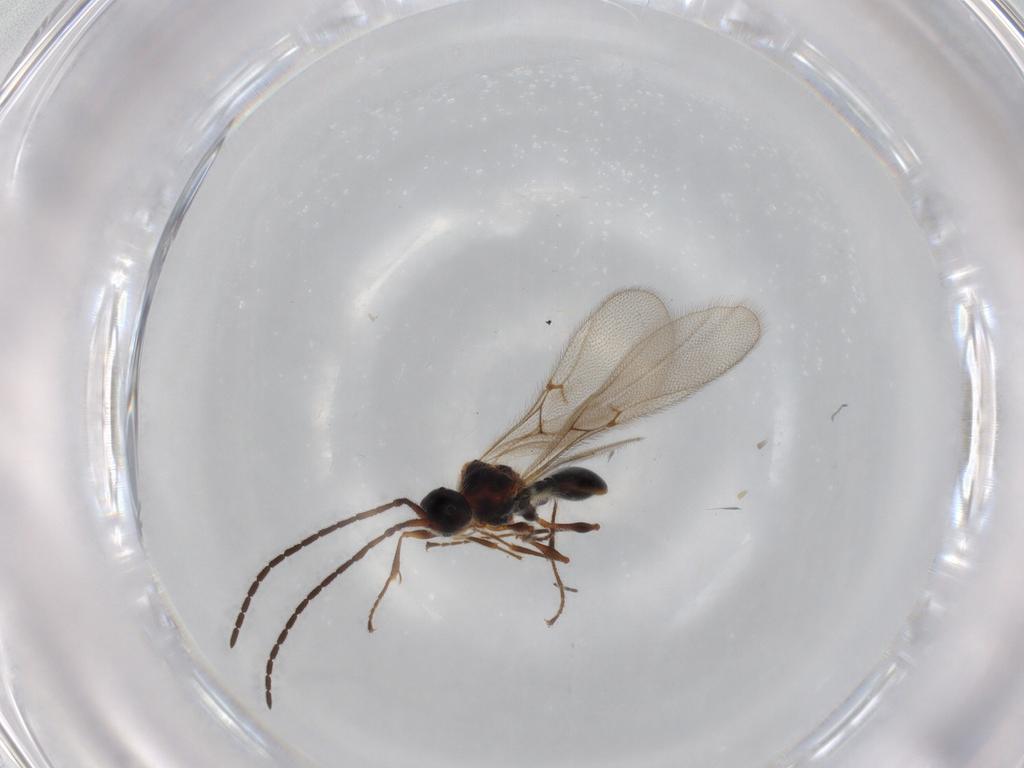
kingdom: Animalia
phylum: Arthropoda
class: Insecta
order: Hymenoptera
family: Diapriidae
